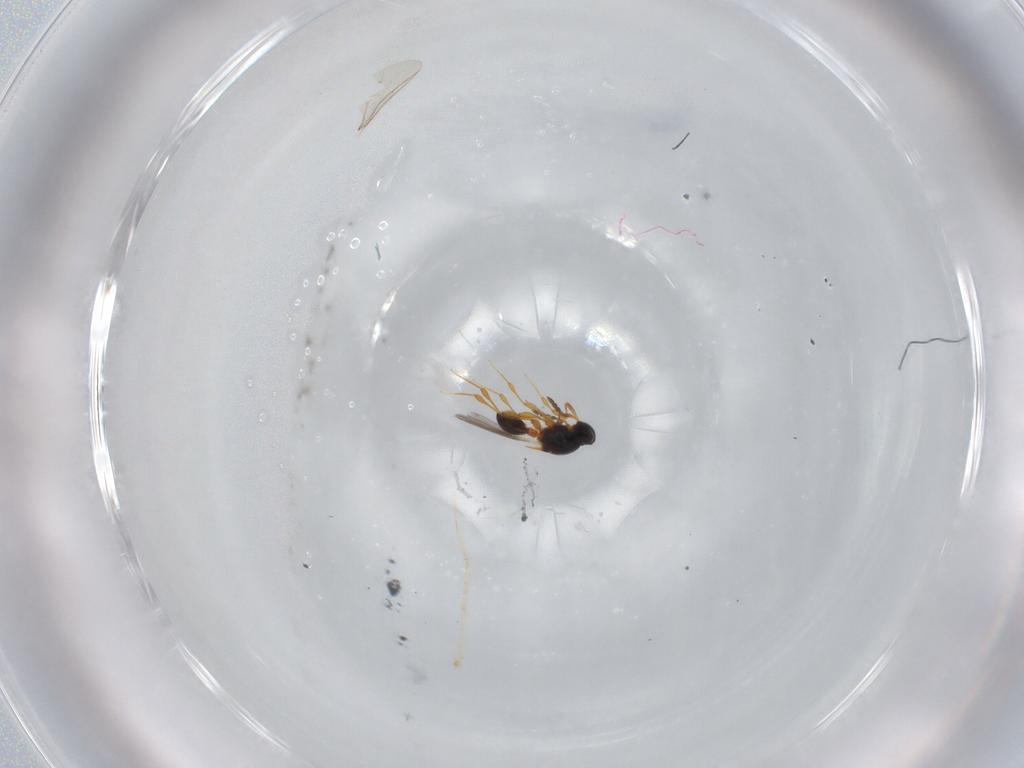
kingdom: Animalia
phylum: Arthropoda
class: Insecta
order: Hymenoptera
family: Platygastridae
